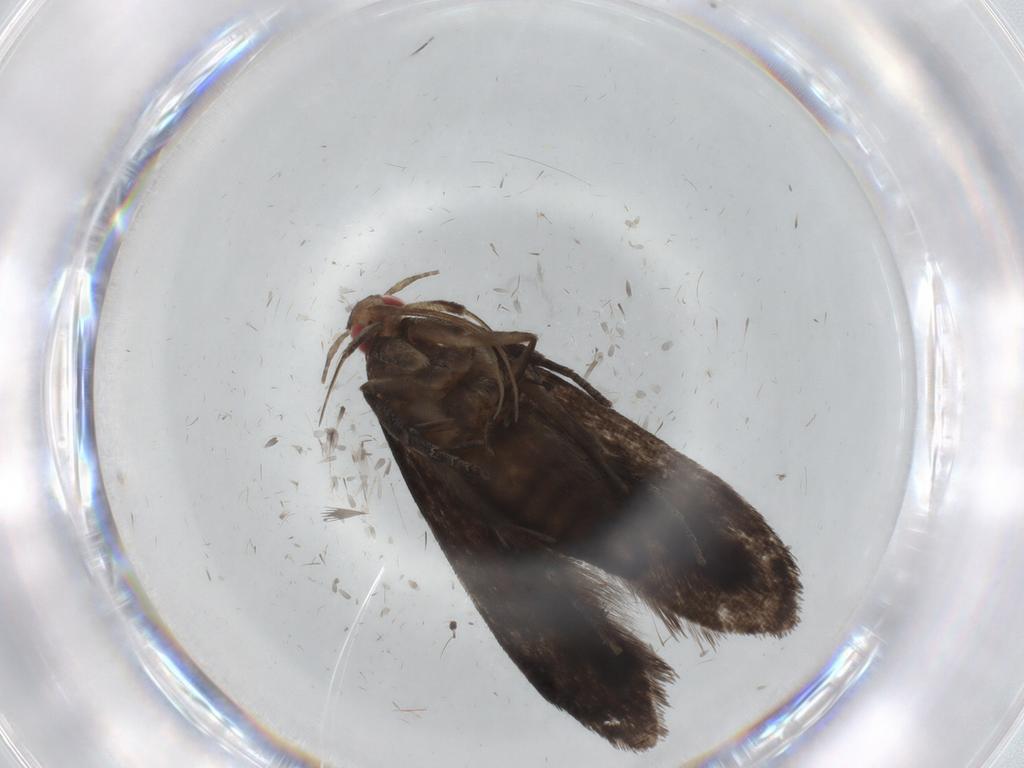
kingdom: Animalia
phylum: Arthropoda
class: Insecta
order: Lepidoptera
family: Gelechiidae
